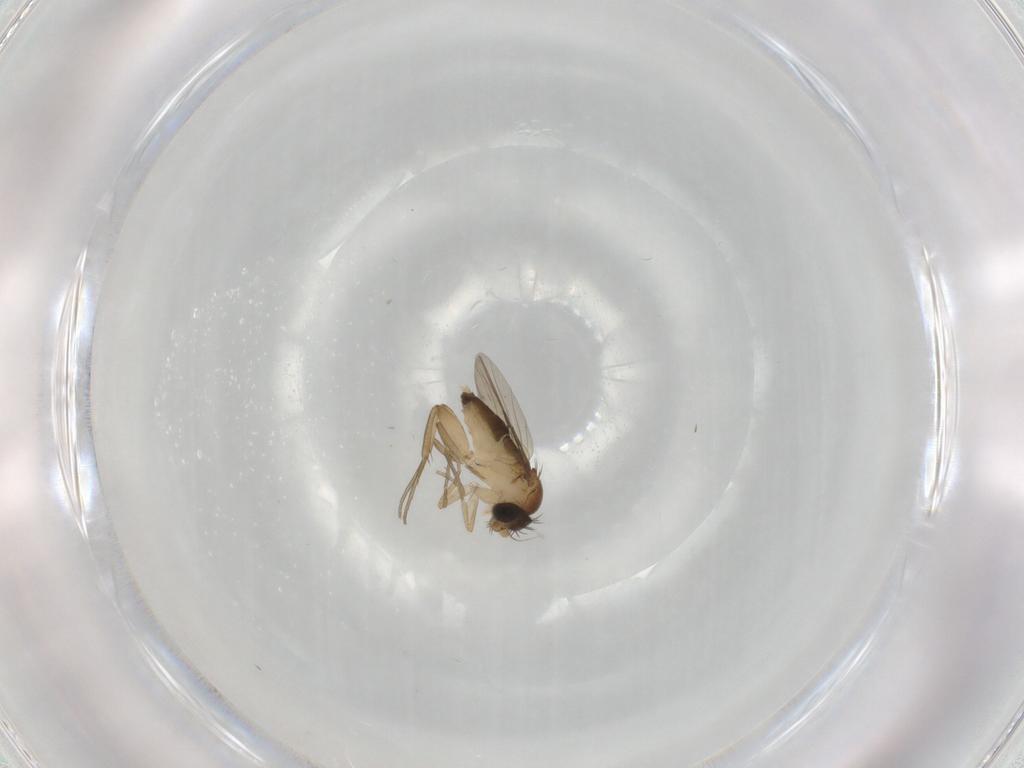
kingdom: Animalia
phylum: Arthropoda
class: Insecta
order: Diptera
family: Phoridae
